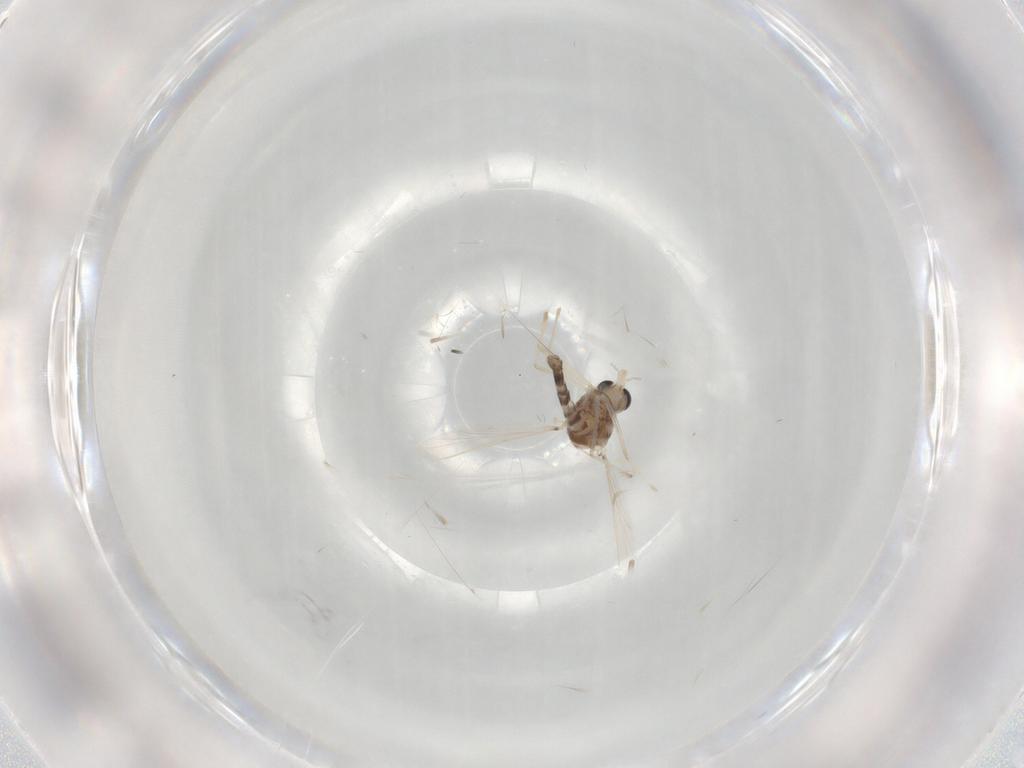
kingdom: Animalia
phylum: Arthropoda
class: Insecta
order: Diptera
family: Chironomidae
